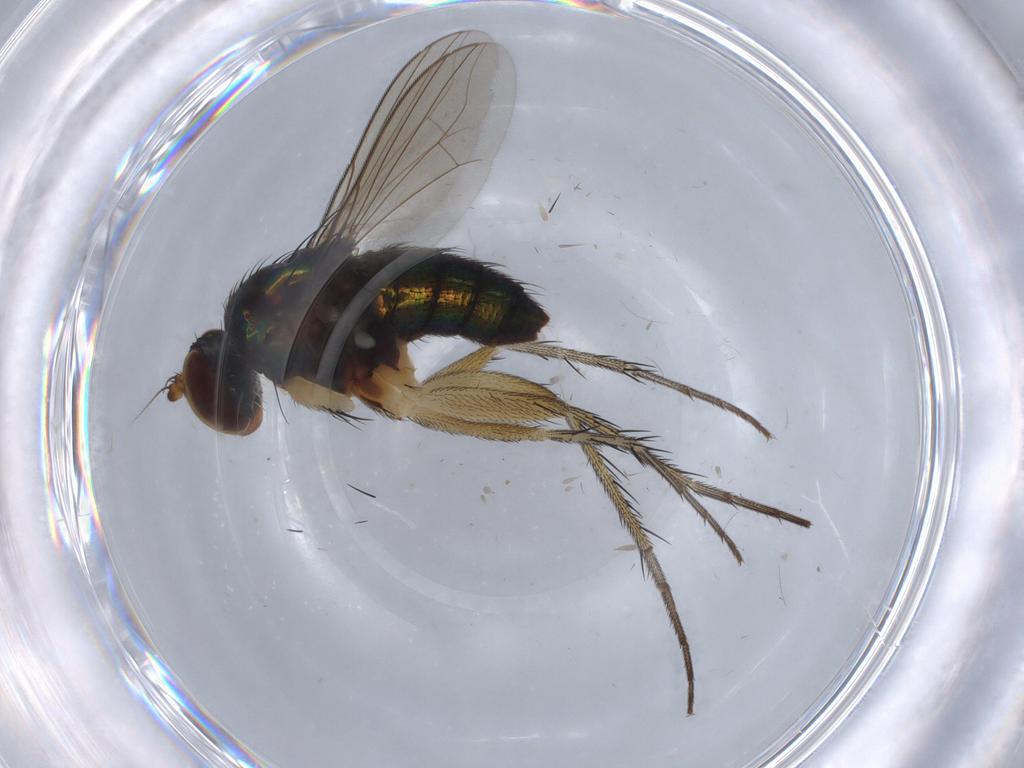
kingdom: Animalia
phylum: Arthropoda
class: Insecta
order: Diptera
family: Dolichopodidae
